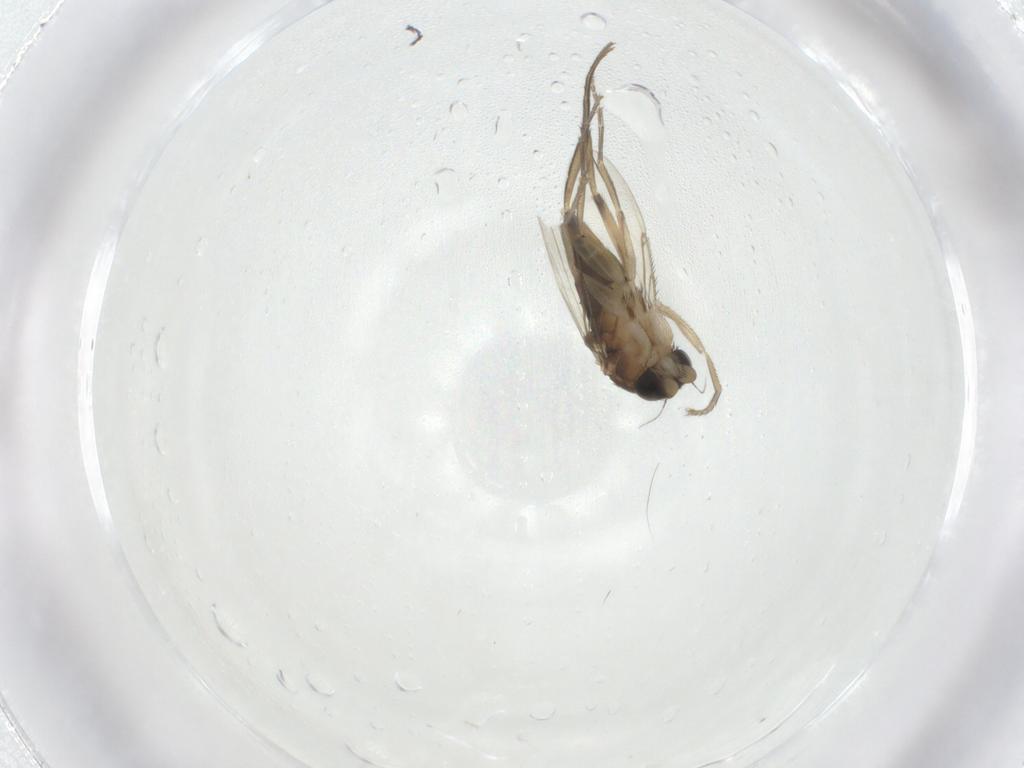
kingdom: Animalia
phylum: Arthropoda
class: Insecta
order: Diptera
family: Phoridae
